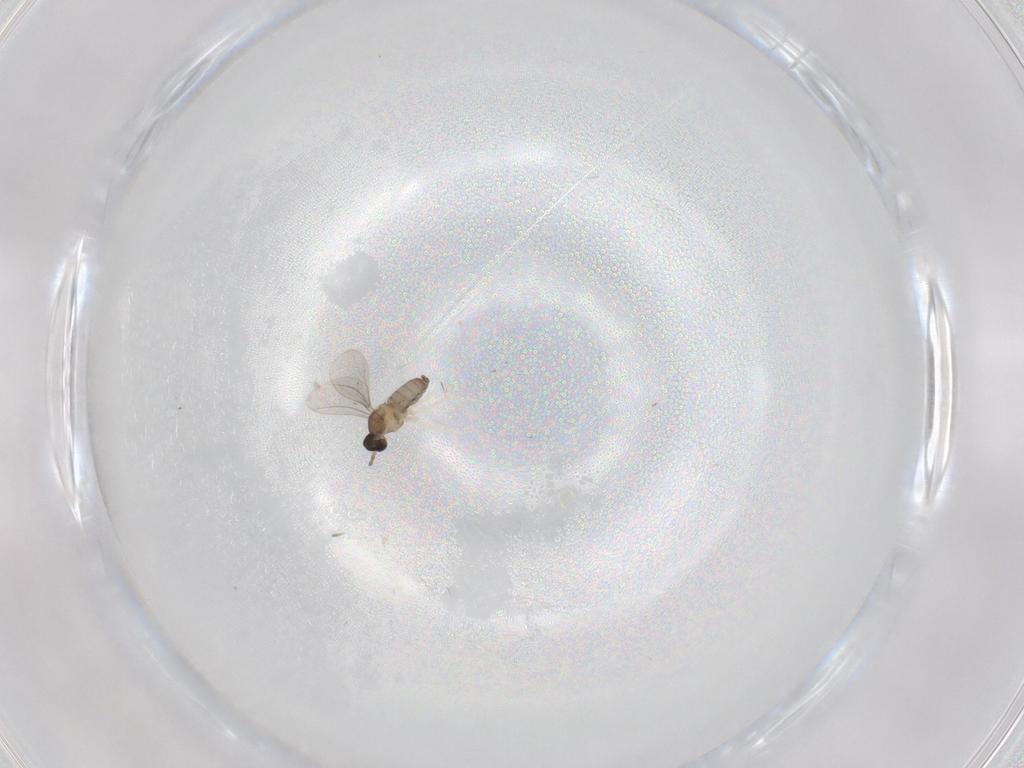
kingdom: Animalia
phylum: Arthropoda
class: Insecta
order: Diptera
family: Cecidomyiidae
